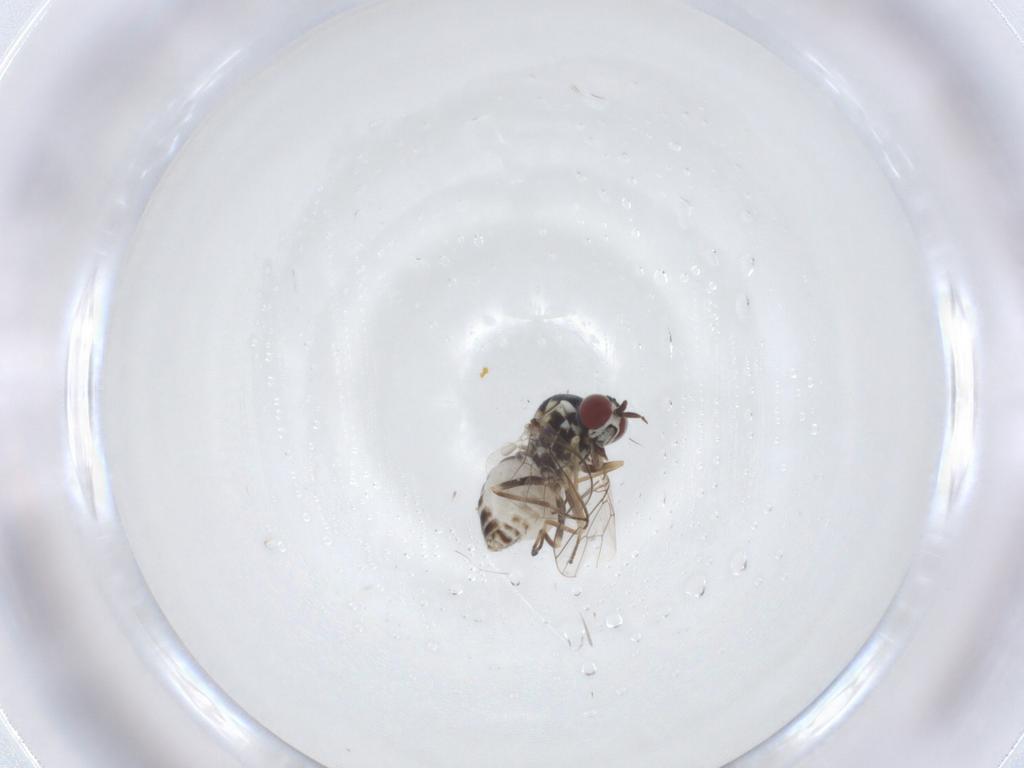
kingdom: Animalia
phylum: Arthropoda
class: Insecta
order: Diptera
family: Bombyliidae
